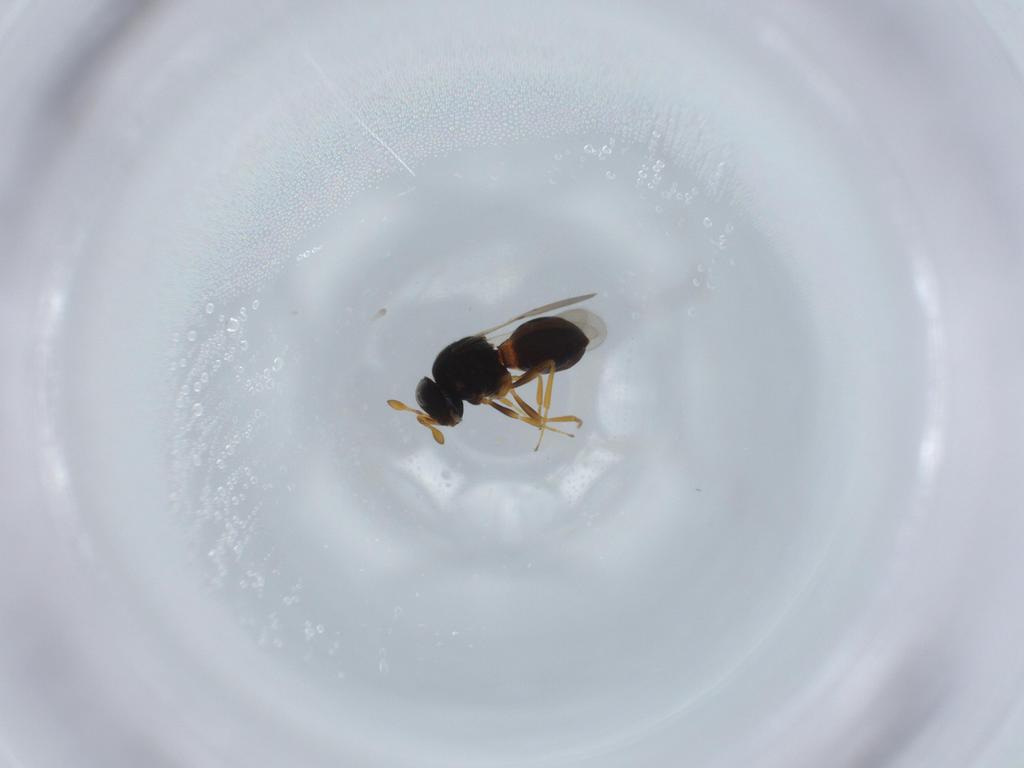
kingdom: Animalia
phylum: Arthropoda
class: Insecta
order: Hymenoptera
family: Scelionidae
